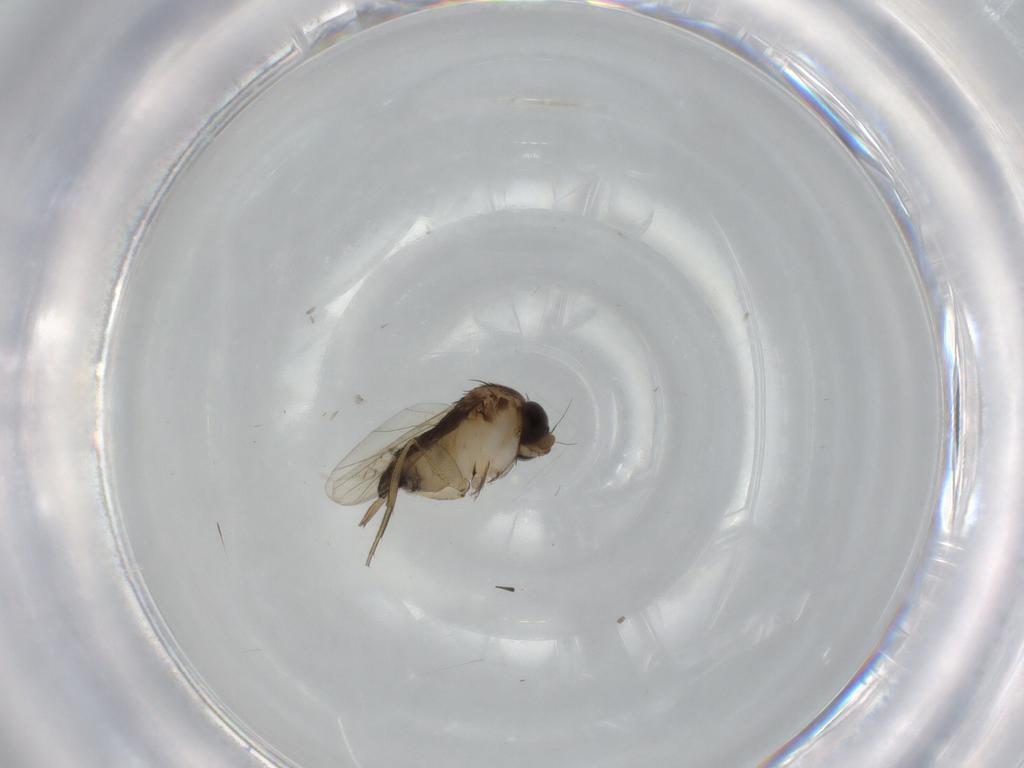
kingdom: Animalia
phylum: Arthropoda
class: Insecta
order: Diptera
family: Phoridae
